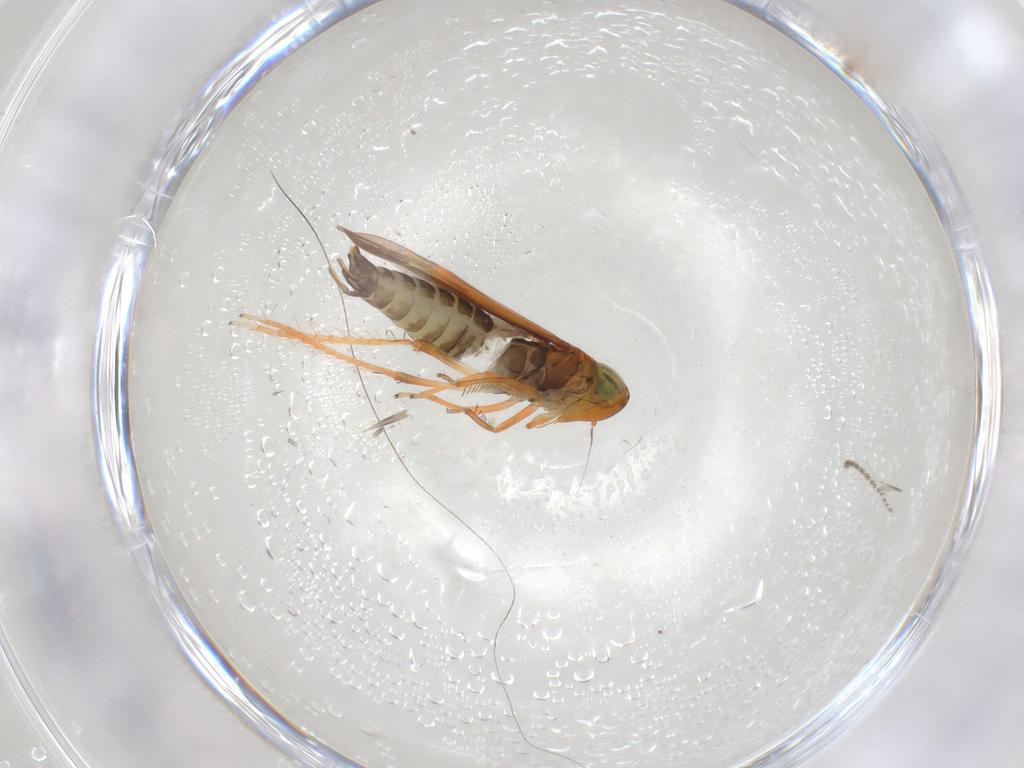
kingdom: Animalia
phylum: Arthropoda
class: Insecta
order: Hemiptera
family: Cicadellidae
